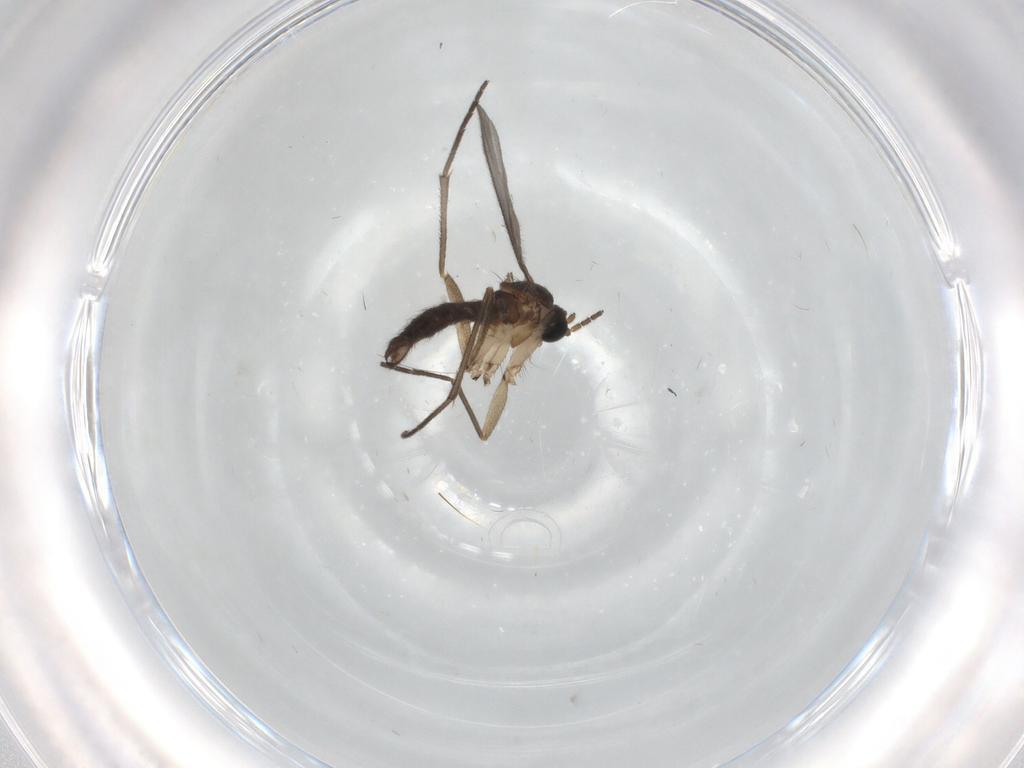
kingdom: Animalia
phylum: Arthropoda
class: Insecta
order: Diptera
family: Sciaridae
